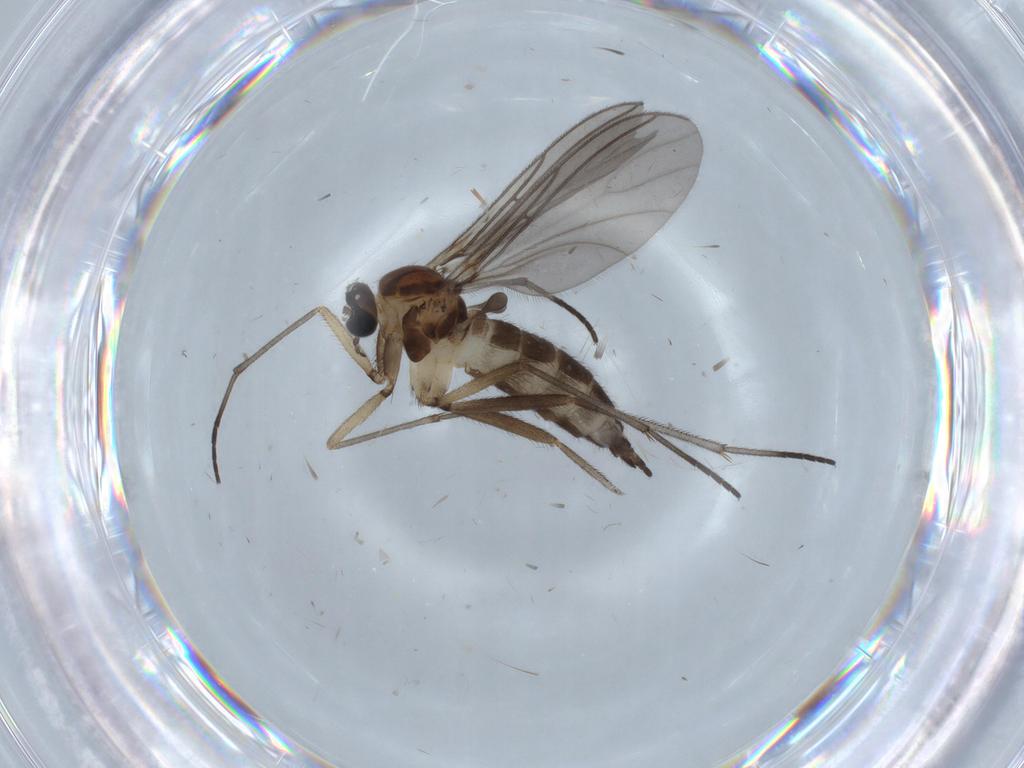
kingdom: Animalia
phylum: Arthropoda
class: Insecta
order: Diptera
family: Sciaridae
